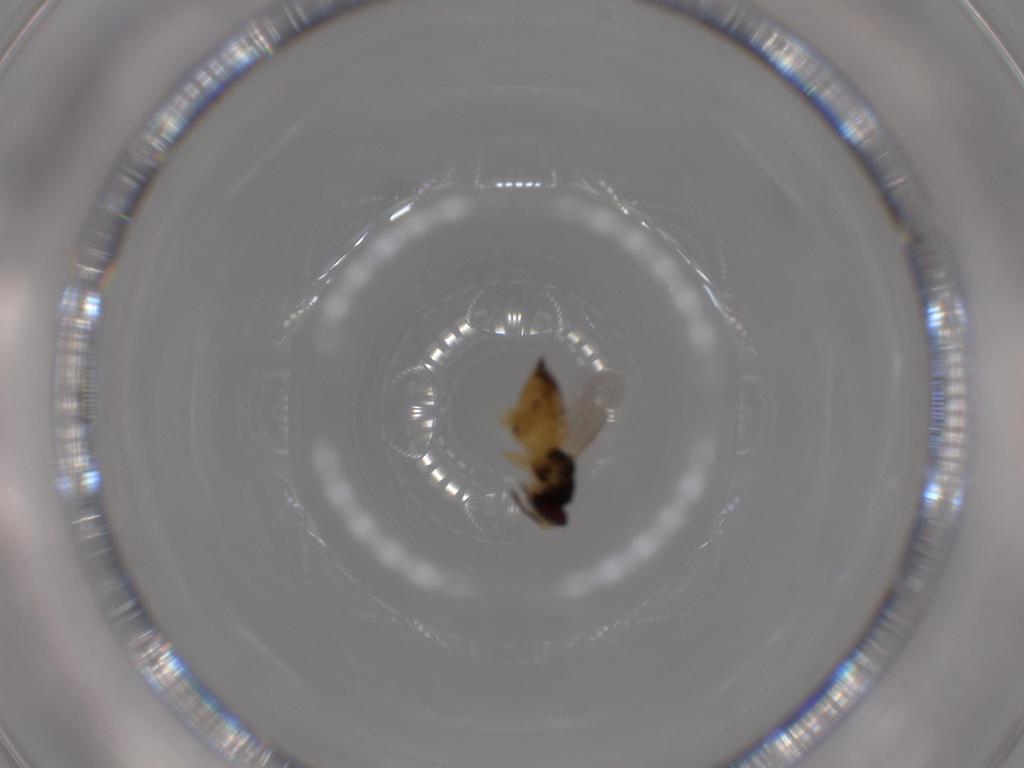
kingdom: Animalia
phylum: Arthropoda
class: Insecta
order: Hymenoptera
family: Eulophidae
